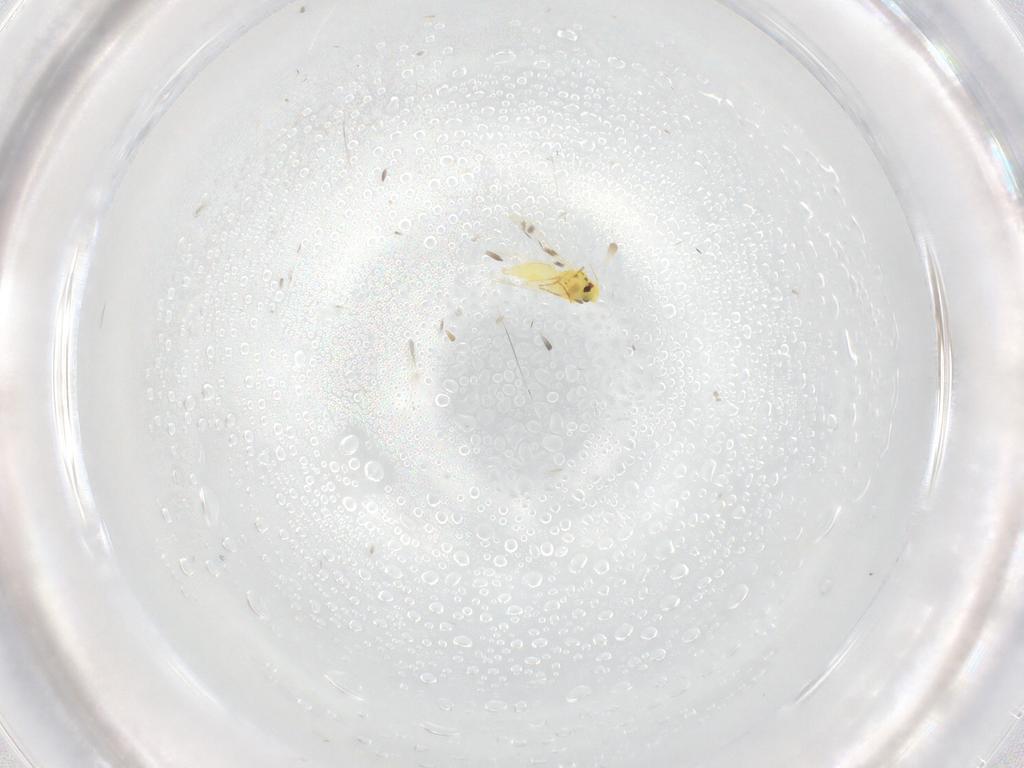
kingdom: Animalia
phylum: Arthropoda
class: Insecta
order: Hemiptera
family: Aleyrodidae
